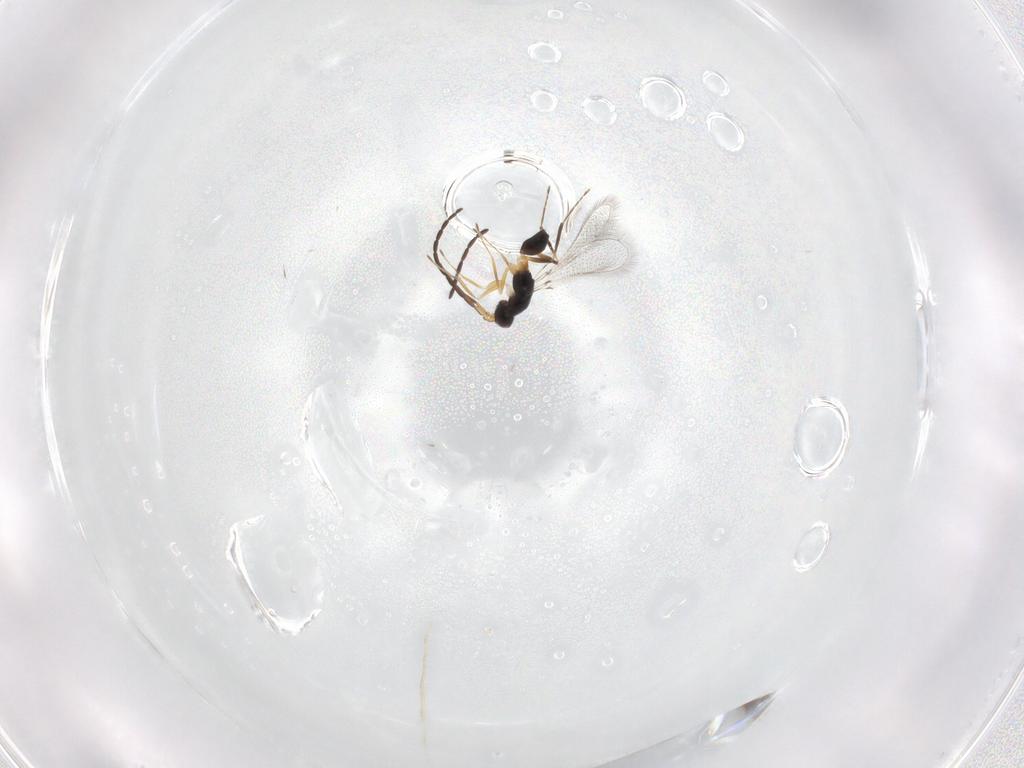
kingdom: Animalia
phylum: Arthropoda
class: Insecta
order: Hymenoptera
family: Mymaridae
